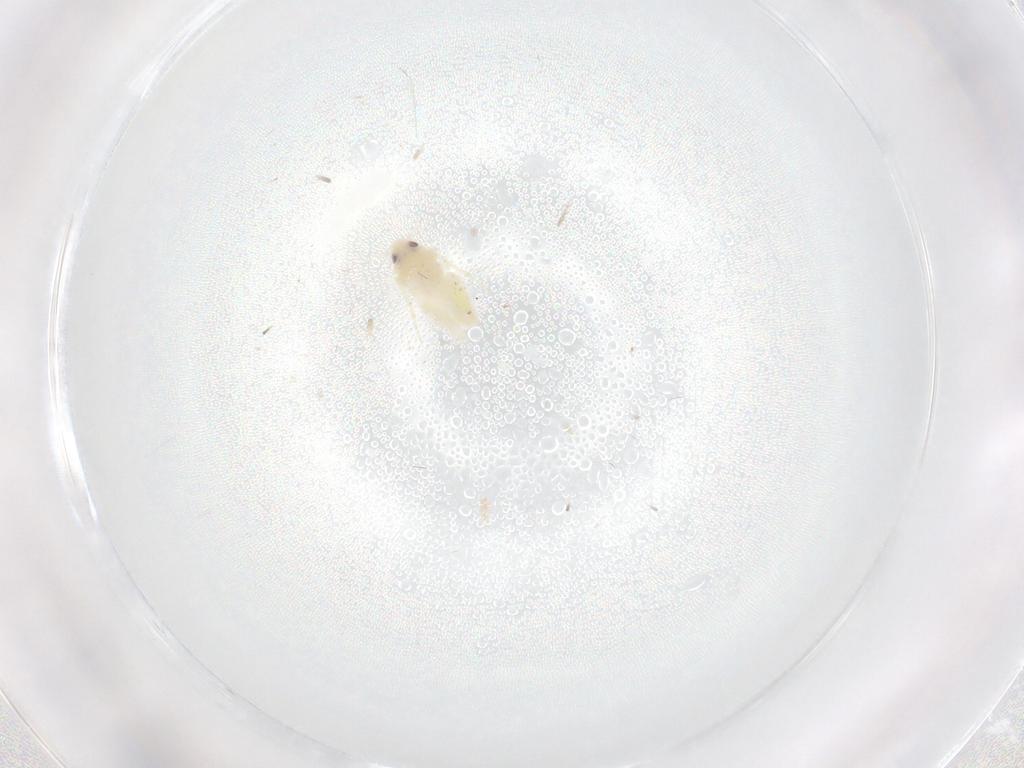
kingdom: Animalia
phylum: Arthropoda
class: Insecta
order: Hemiptera
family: Aleyrodidae
